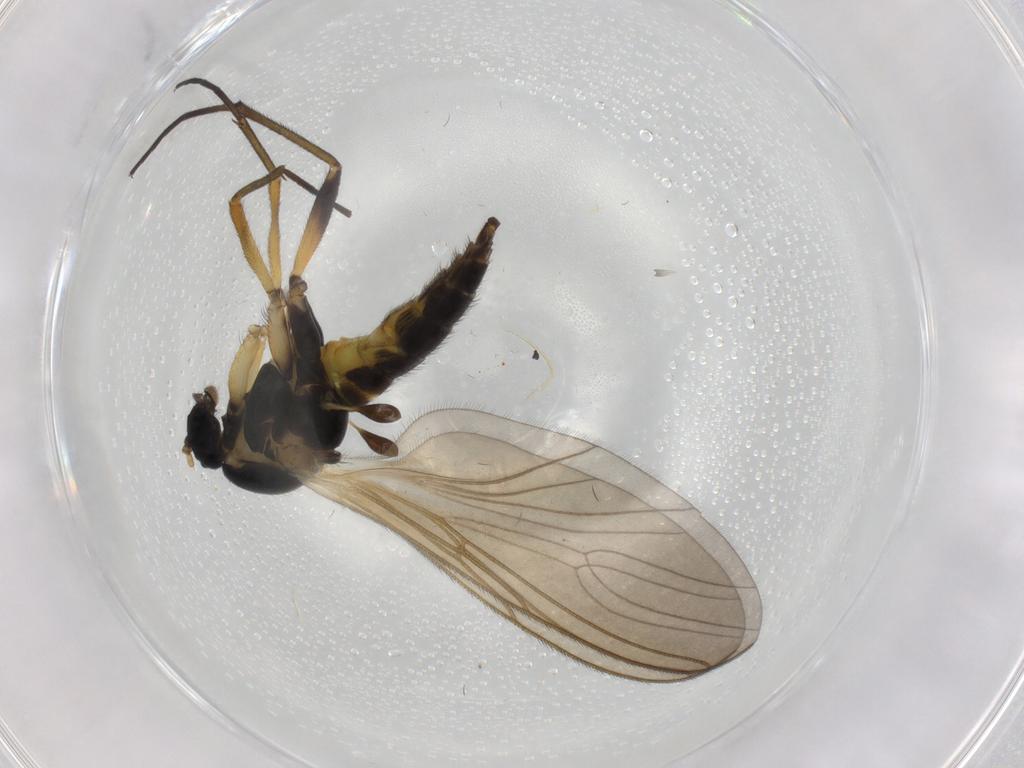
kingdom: Animalia
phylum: Arthropoda
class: Insecta
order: Diptera
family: Sciaridae
